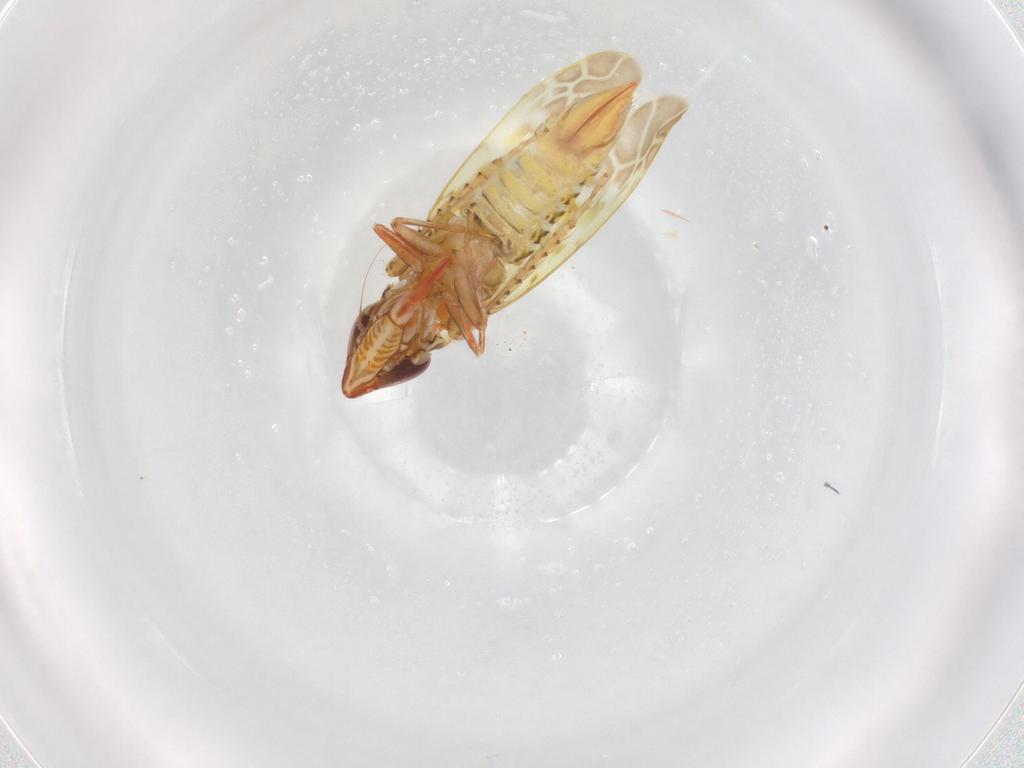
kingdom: Animalia
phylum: Arthropoda
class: Insecta
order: Hemiptera
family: Cicadellidae
